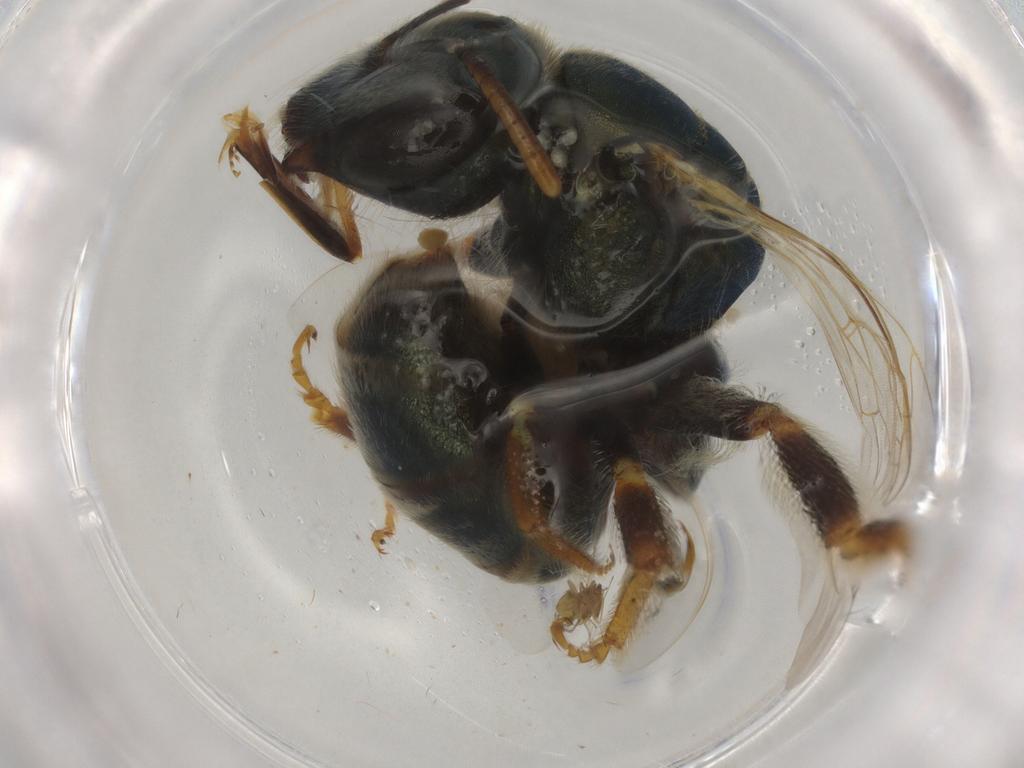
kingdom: Animalia
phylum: Arthropoda
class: Insecta
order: Hymenoptera
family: Halictidae
